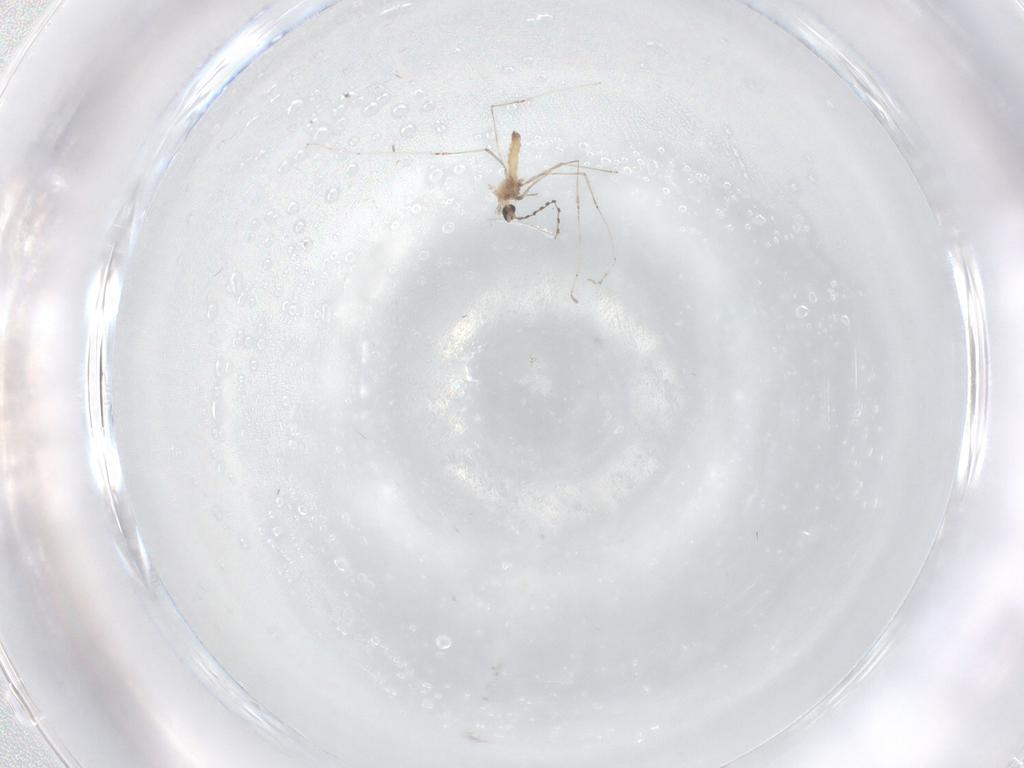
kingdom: Animalia
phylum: Arthropoda
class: Insecta
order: Diptera
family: Cecidomyiidae
